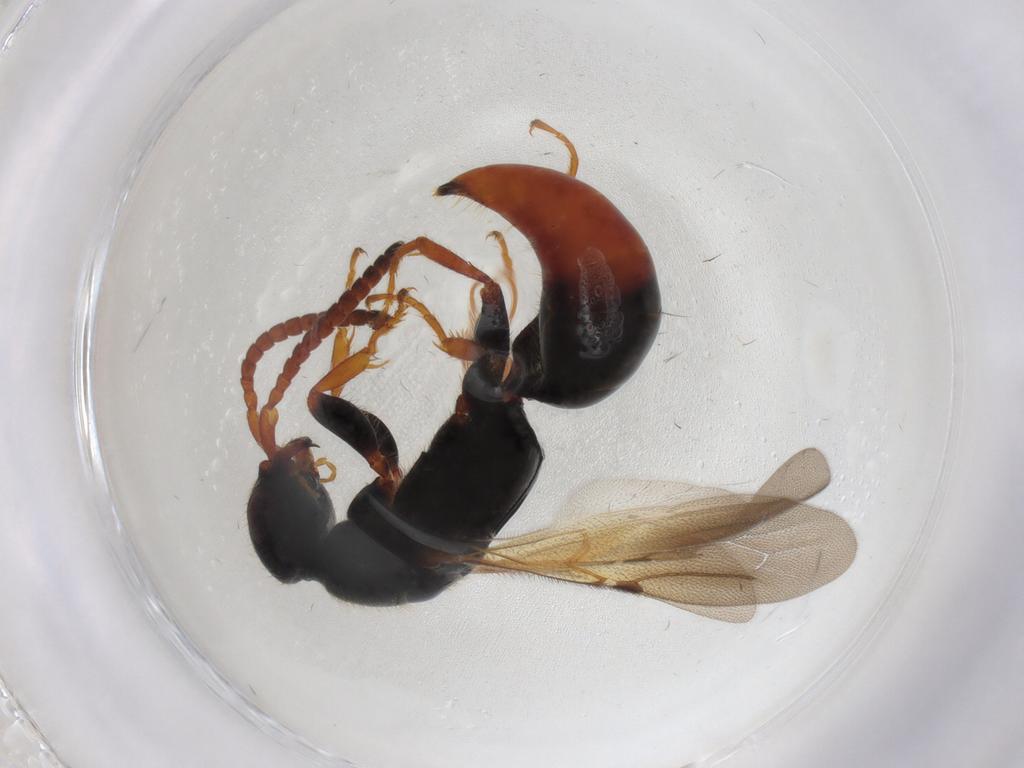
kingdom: Animalia
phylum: Arthropoda
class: Insecta
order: Hymenoptera
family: Bethylidae
